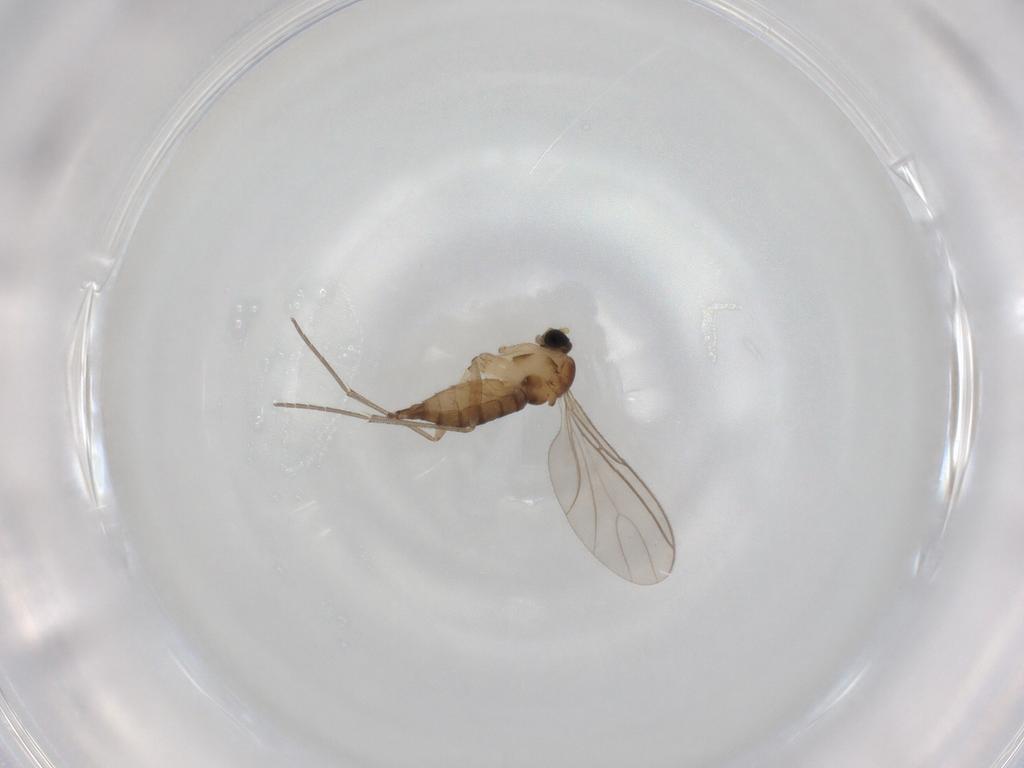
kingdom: Animalia
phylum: Arthropoda
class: Insecta
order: Diptera
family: Sciaridae
